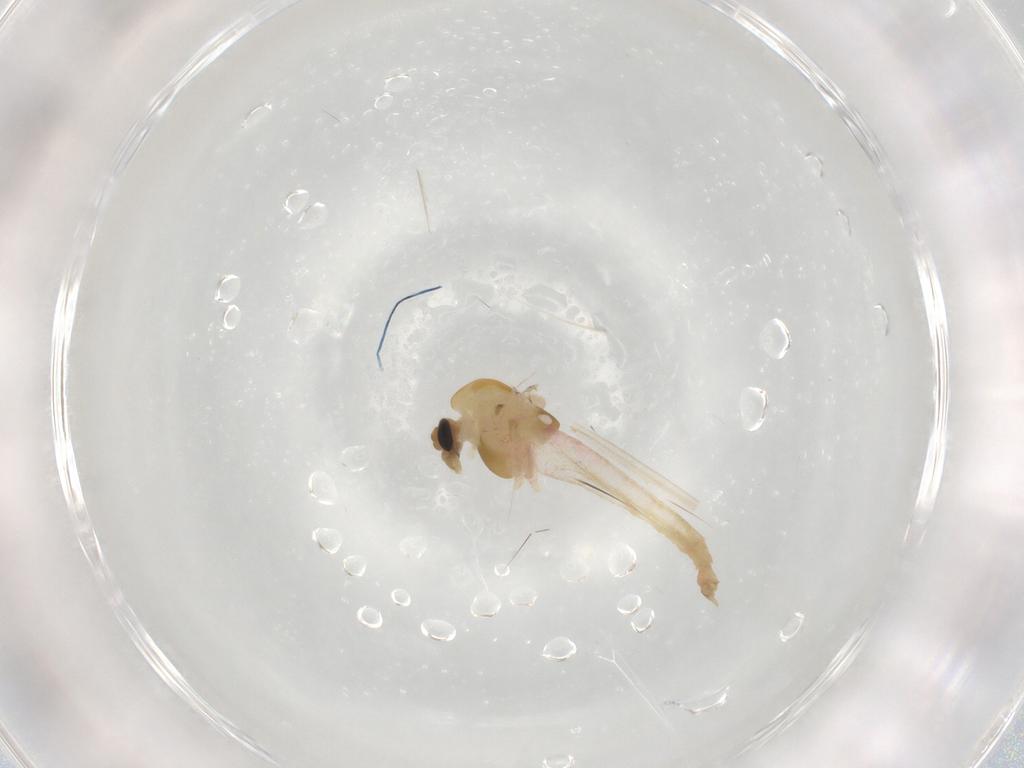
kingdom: Animalia
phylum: Arthropoda
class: Insecta
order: Diptera
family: Chironomidae
